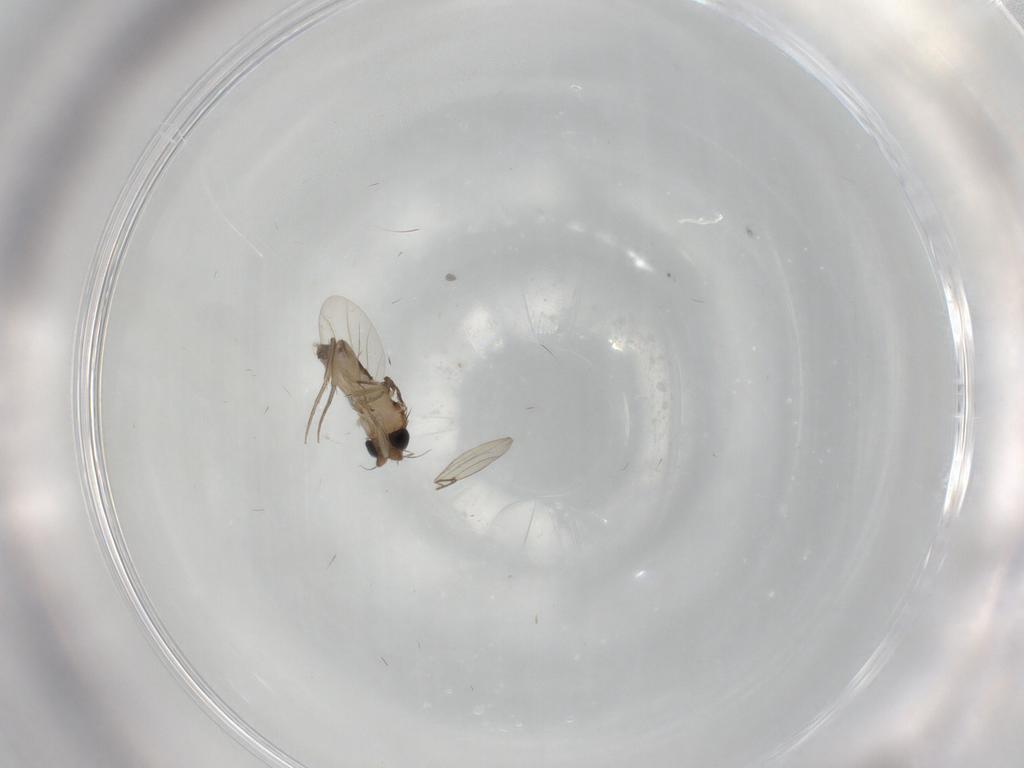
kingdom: Animalia
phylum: Arthropoda
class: Insecta
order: Diptera
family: Phoridae
